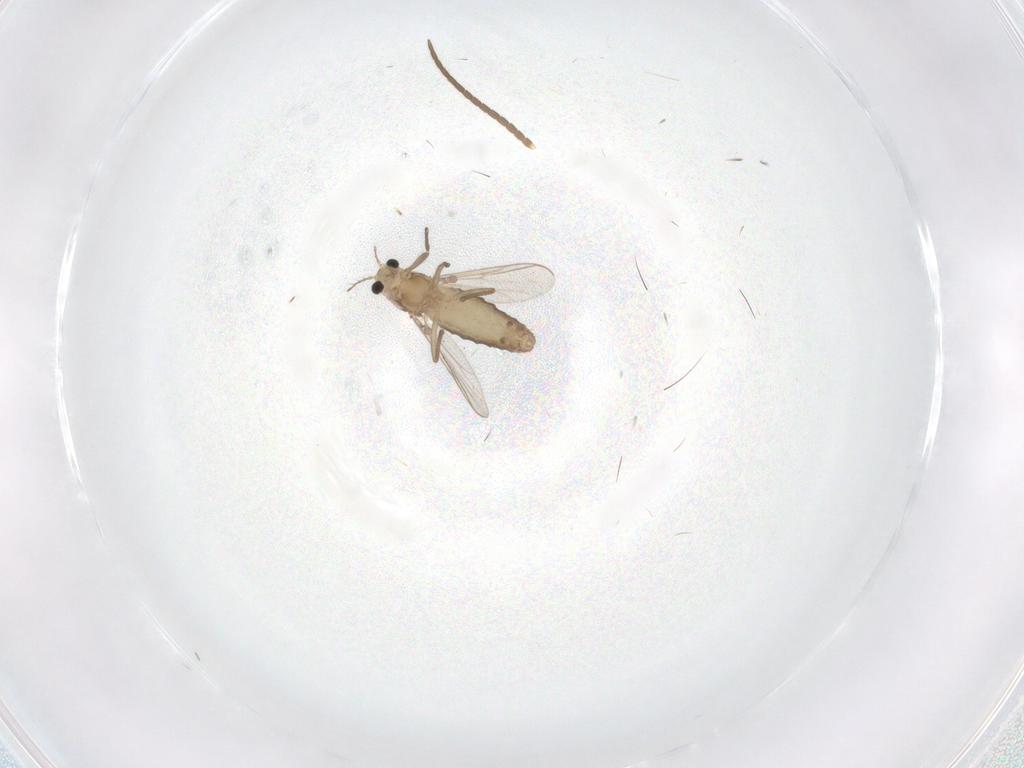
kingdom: Animalia
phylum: Arthropoda
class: Insecta
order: Diptera
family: Chironomidae
